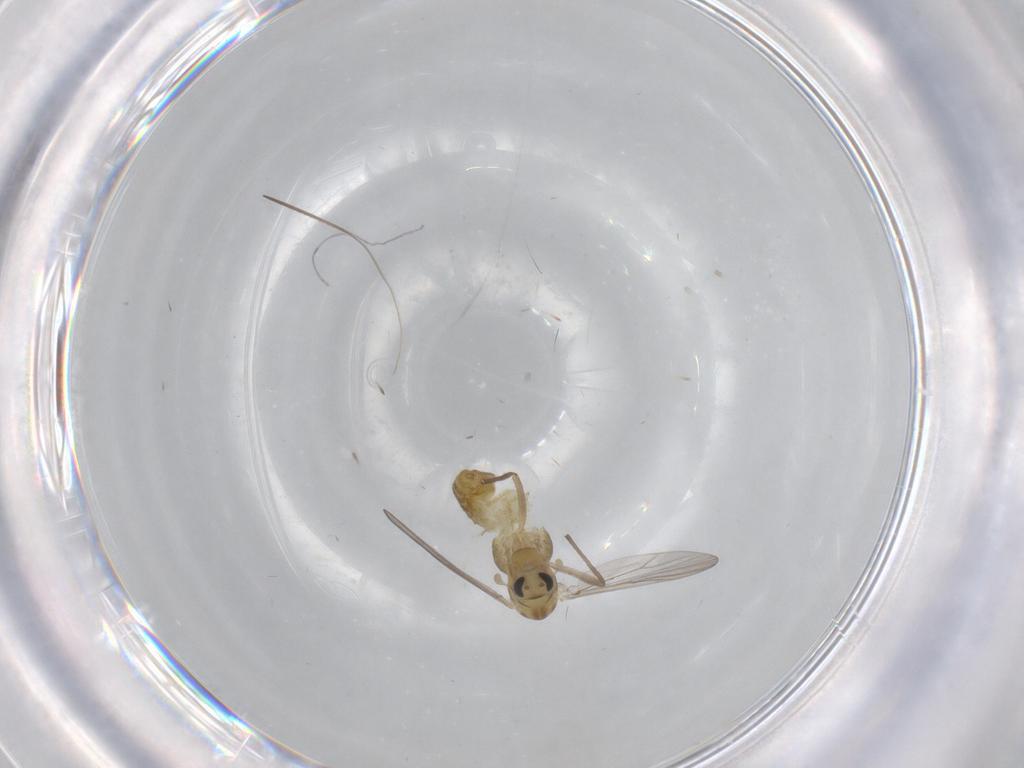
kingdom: Animalia
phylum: Arthropoda
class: Insecta
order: Diptera
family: Chironomidae
